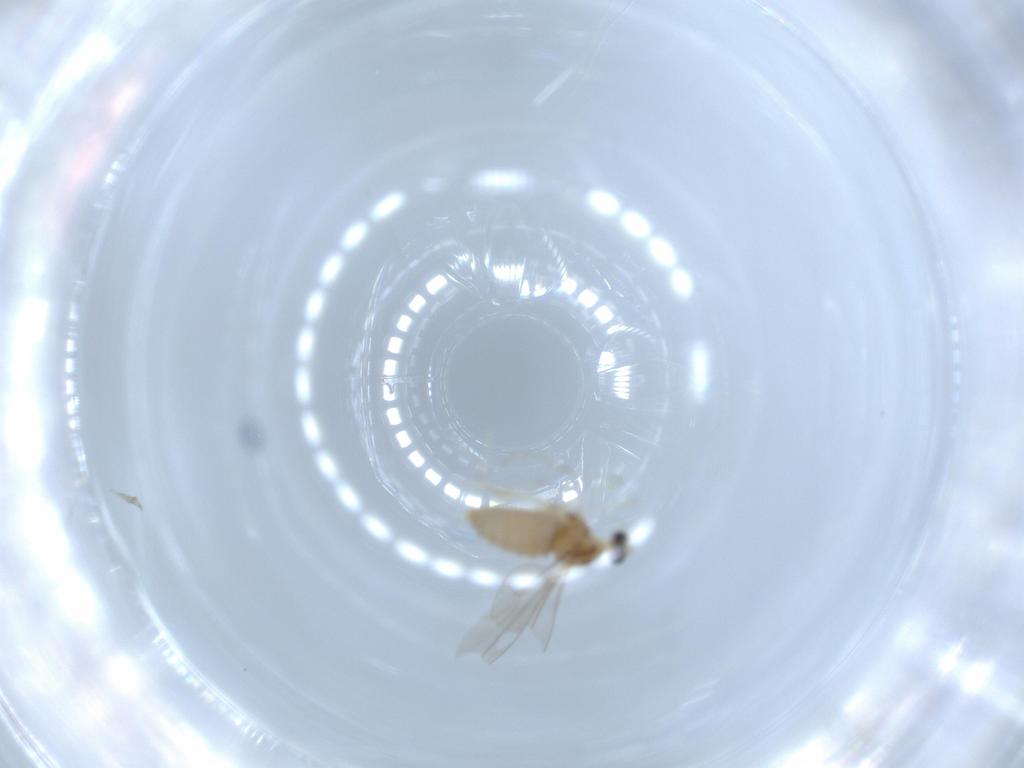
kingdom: Animalia
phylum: Arthropoda
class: Insecta
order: Diptera
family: Cecidomyiidae
